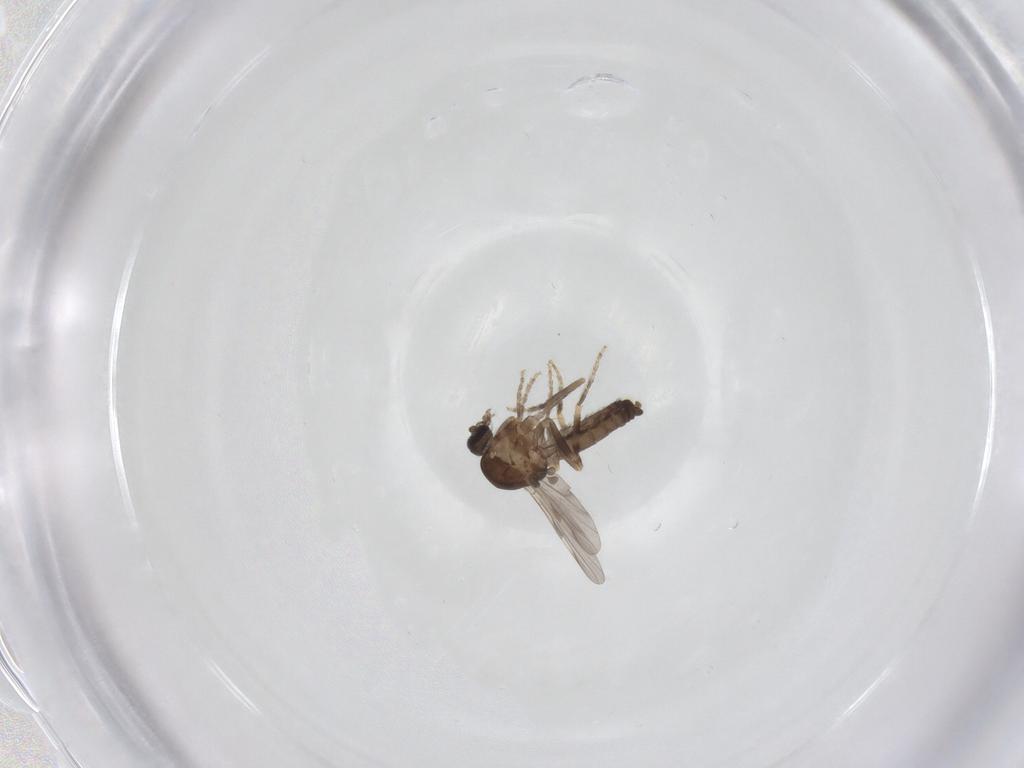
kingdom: Animalia
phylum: Arthropoda
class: Insecta
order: Diptera
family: Ceratopogonidae
